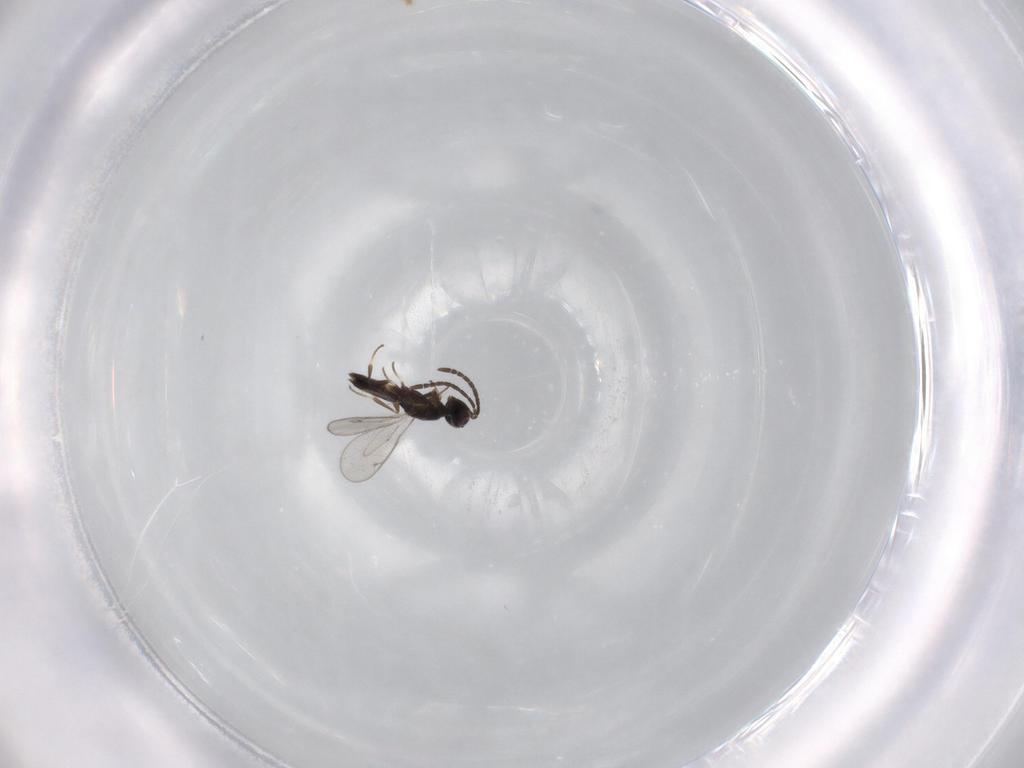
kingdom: Animalia
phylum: Arthropoda
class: Insecta
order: Hymenoptera
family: Eupelmidae
